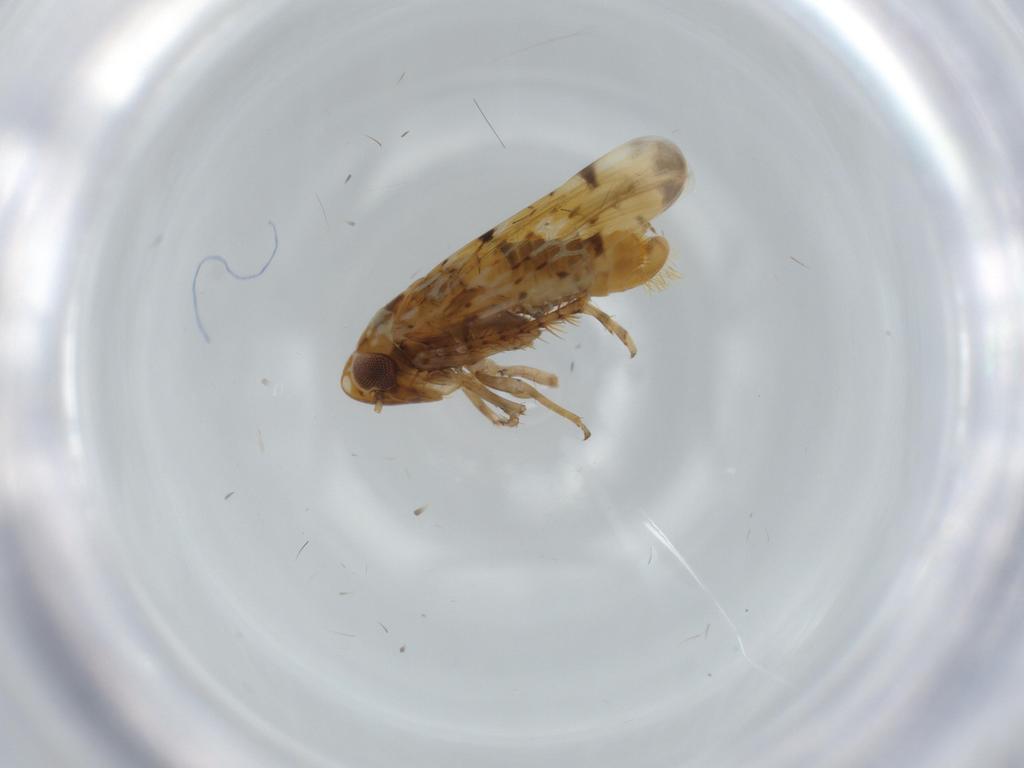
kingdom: Animalia
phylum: Arthropoda
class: Insecta
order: Hemiptera
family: Cicadellidae
